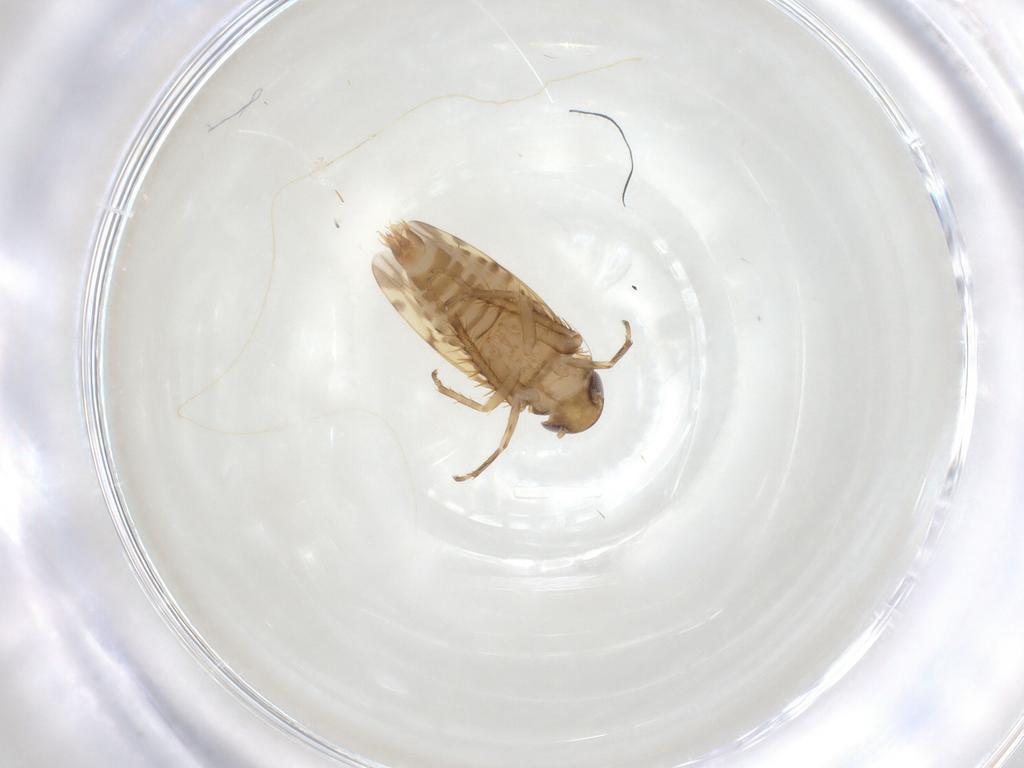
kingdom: Animalia
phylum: Arthropoda
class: Insecta
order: Hemiptera
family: Cicadellidae
